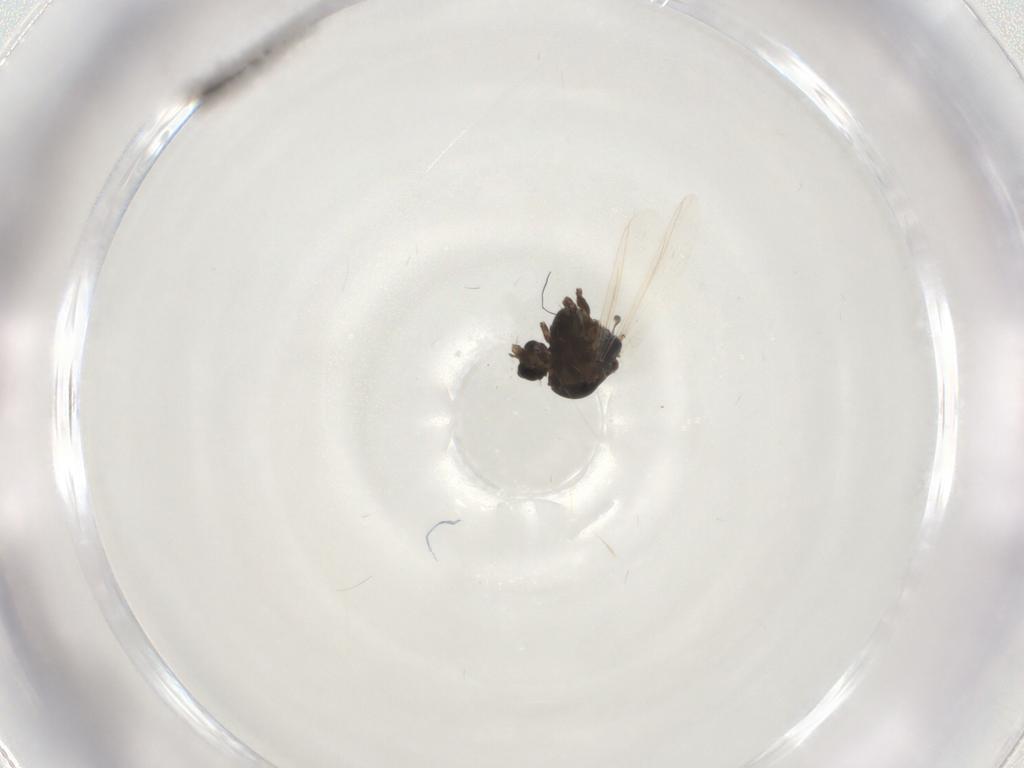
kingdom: Animalia
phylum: Arthropoda
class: Insecta
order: Diptera
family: Chironomidae
